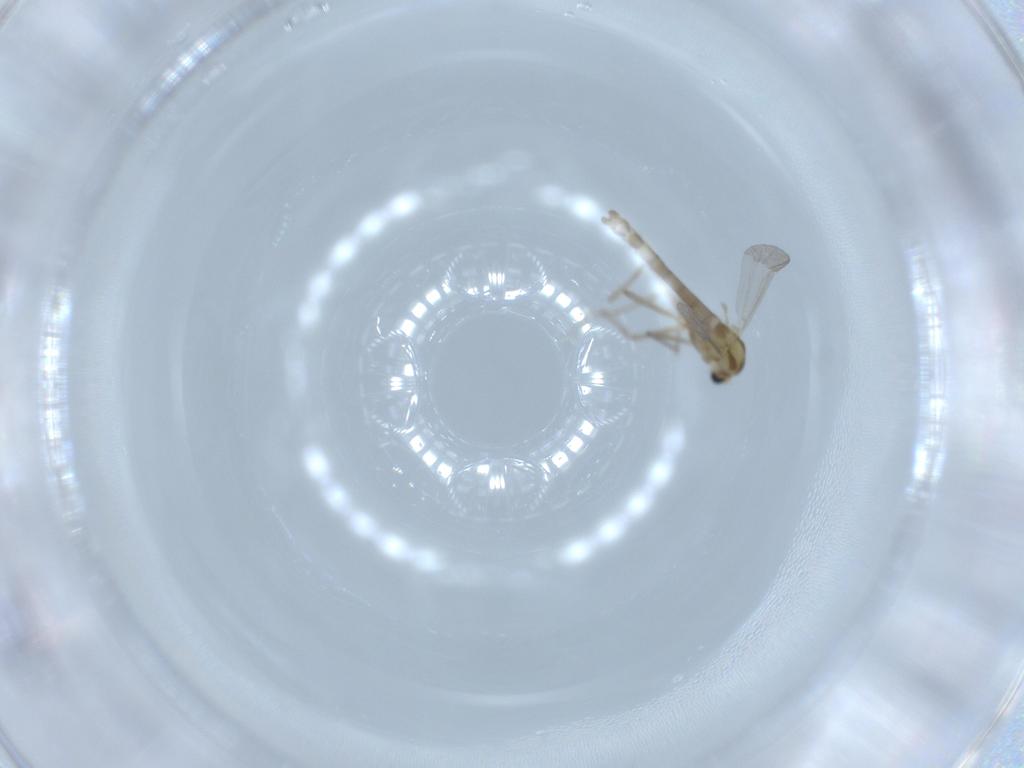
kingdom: Animalia
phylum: Arthropoda
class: Insecta
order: Diptera
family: Chironomidae
